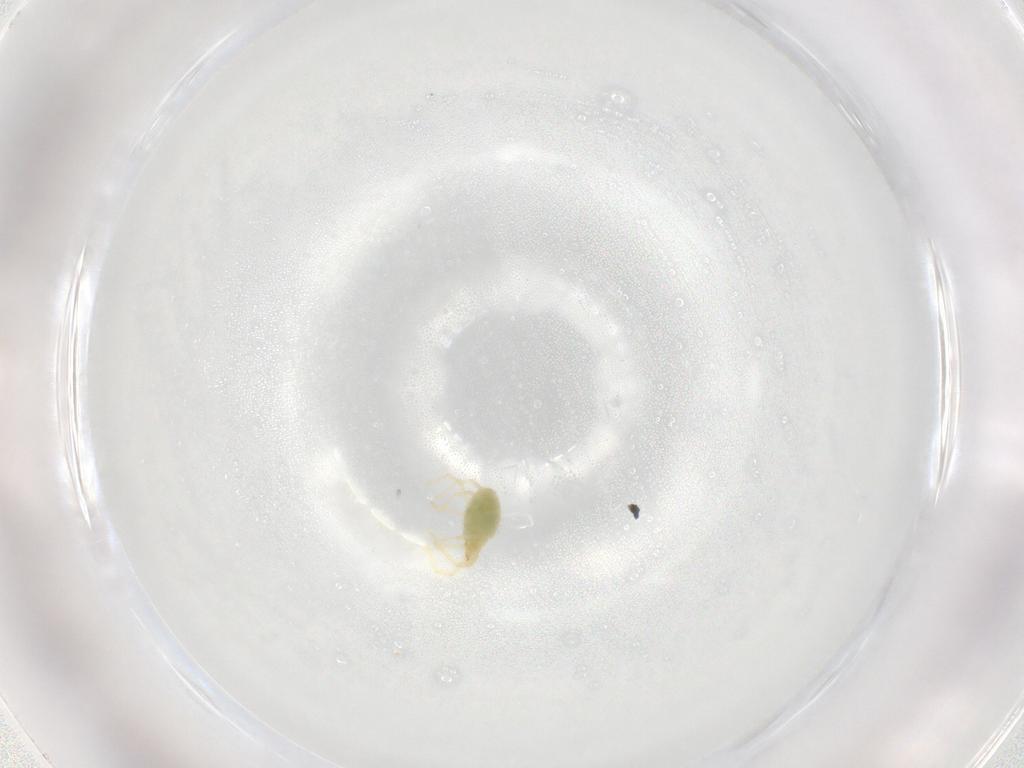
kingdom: Animalia
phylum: Arthropoda
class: Arachnida
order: Trombidiformes
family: Erythraeidae
